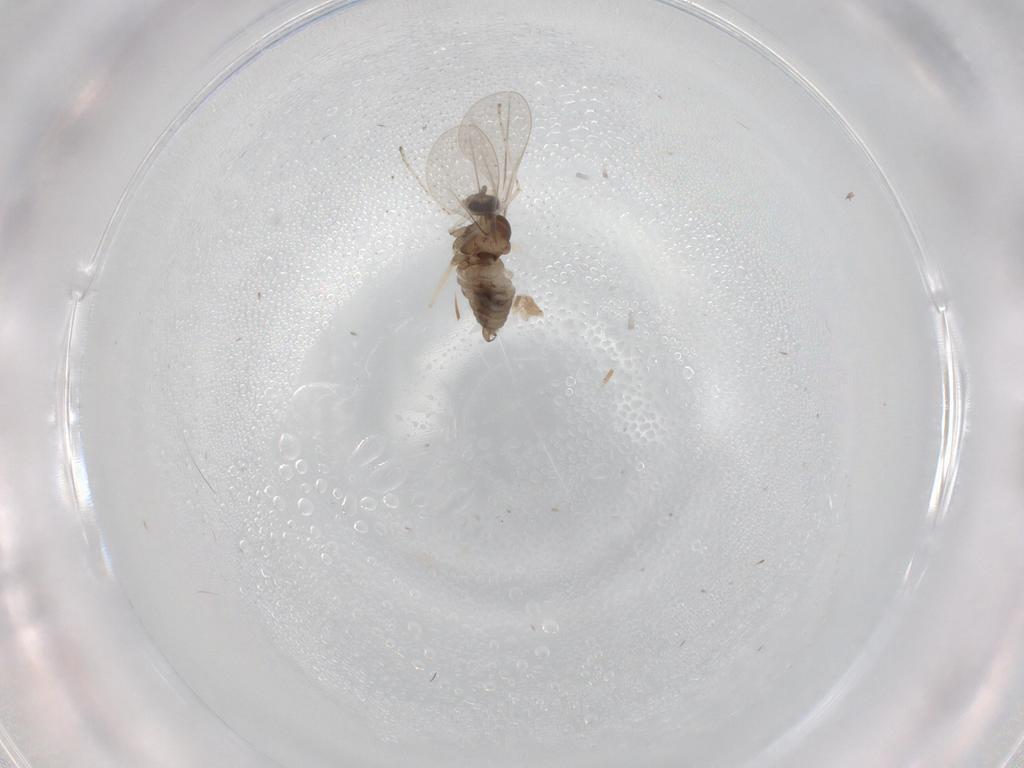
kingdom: Animalia
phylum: Arthropoda
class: Insecta
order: Diptera
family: Cecidomyiidae
